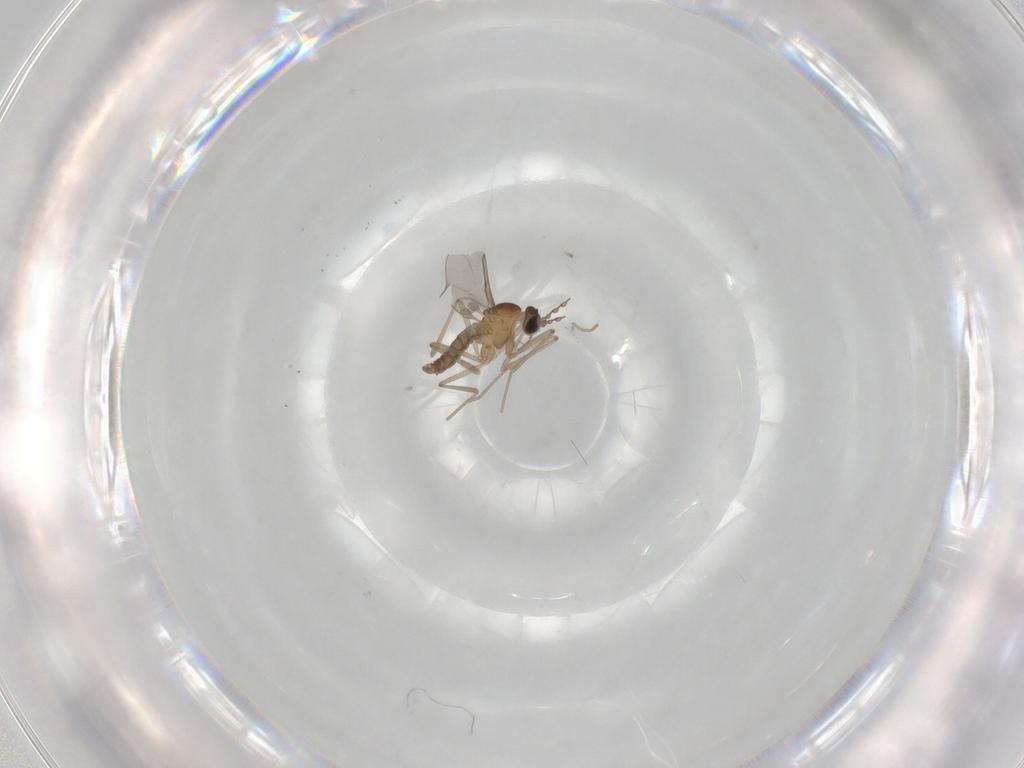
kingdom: Animalia
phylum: Arthropoda
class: Insecta
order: Diptera
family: Cecidomyiidae
